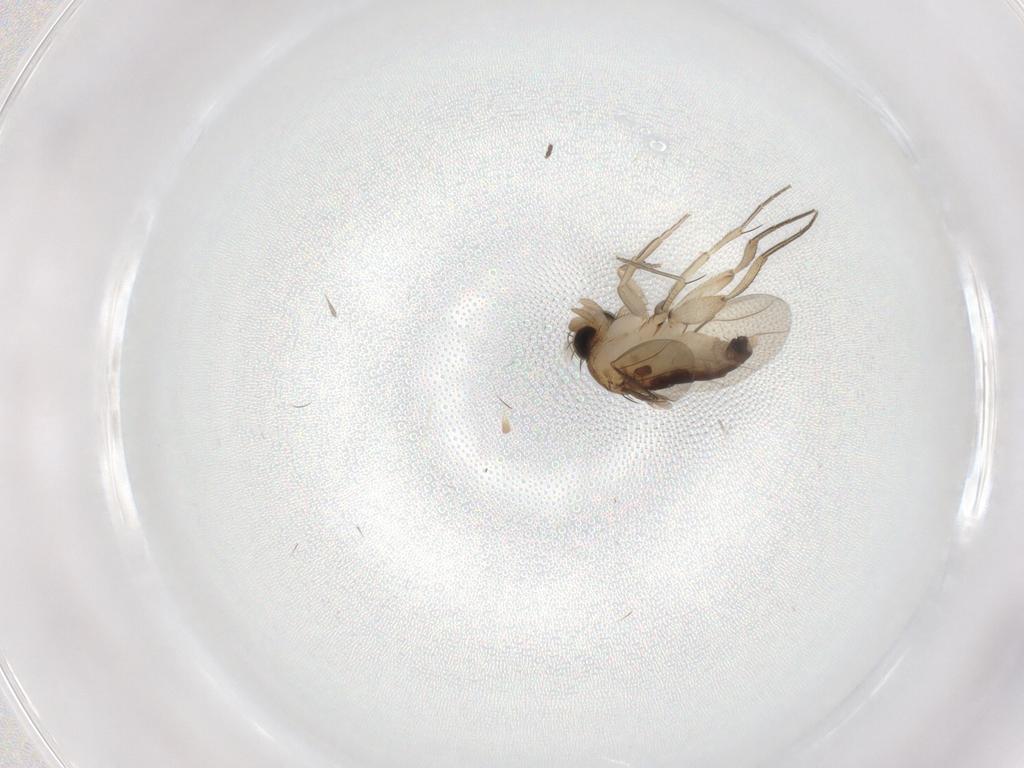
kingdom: Animalia
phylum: Arthropoda
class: Insecta
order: Diptera
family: Phoridae
